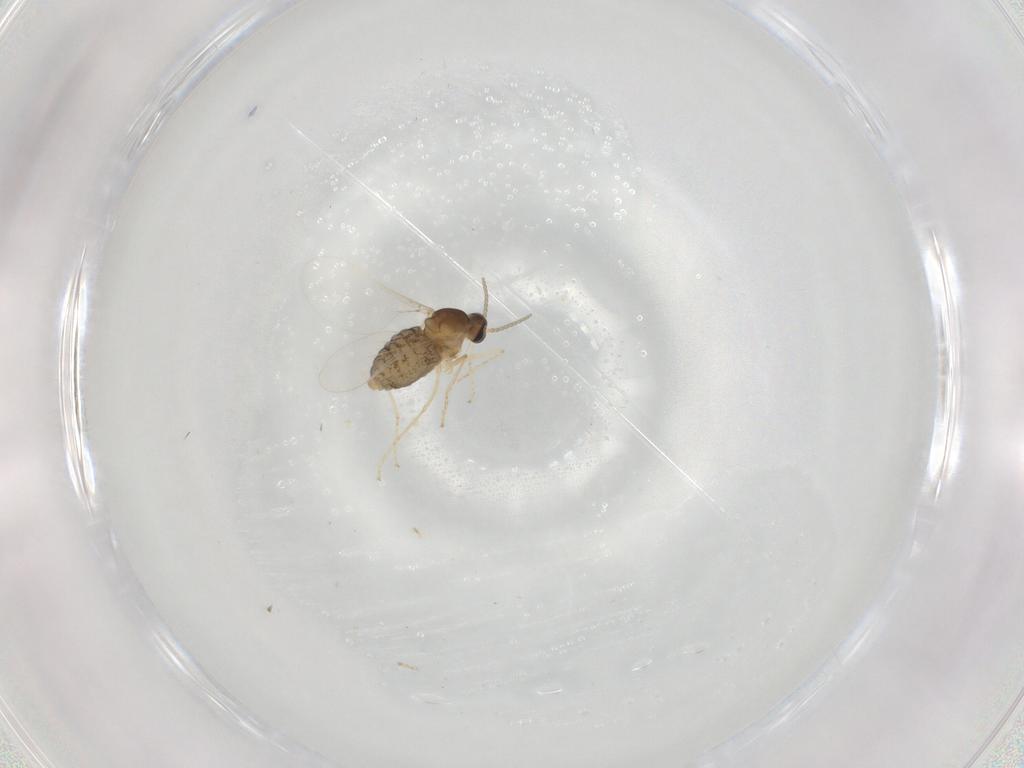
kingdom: Animalia
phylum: Arthropoda
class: Insecta
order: Diptera
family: Cecidomyiidae
